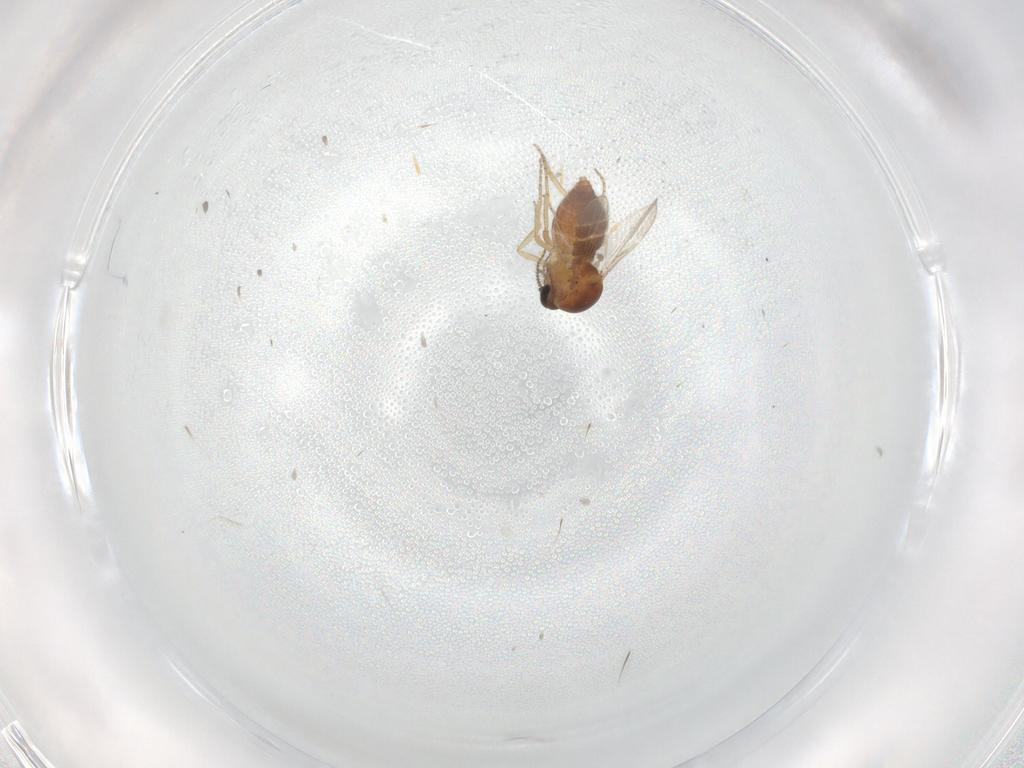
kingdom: Animalia
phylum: Arthropoda
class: Insecta
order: Diptera
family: Ceratopogonidae
